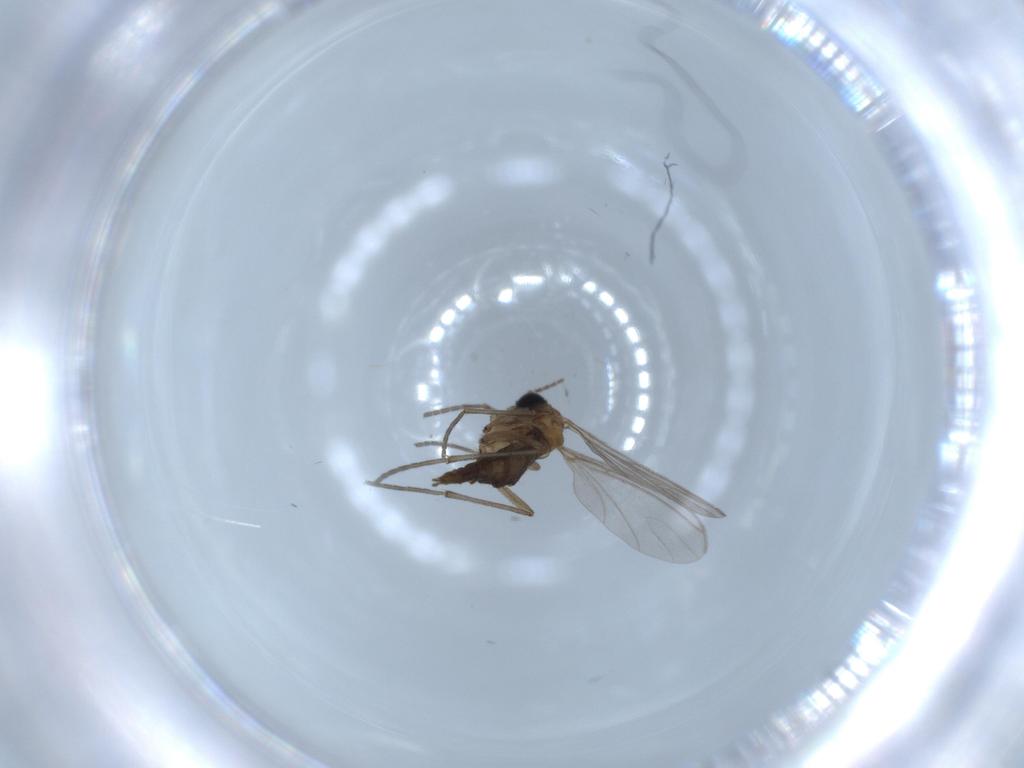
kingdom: Animalia
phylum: Arthropoda
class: Insecta
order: Diptera
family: Sciaridae
